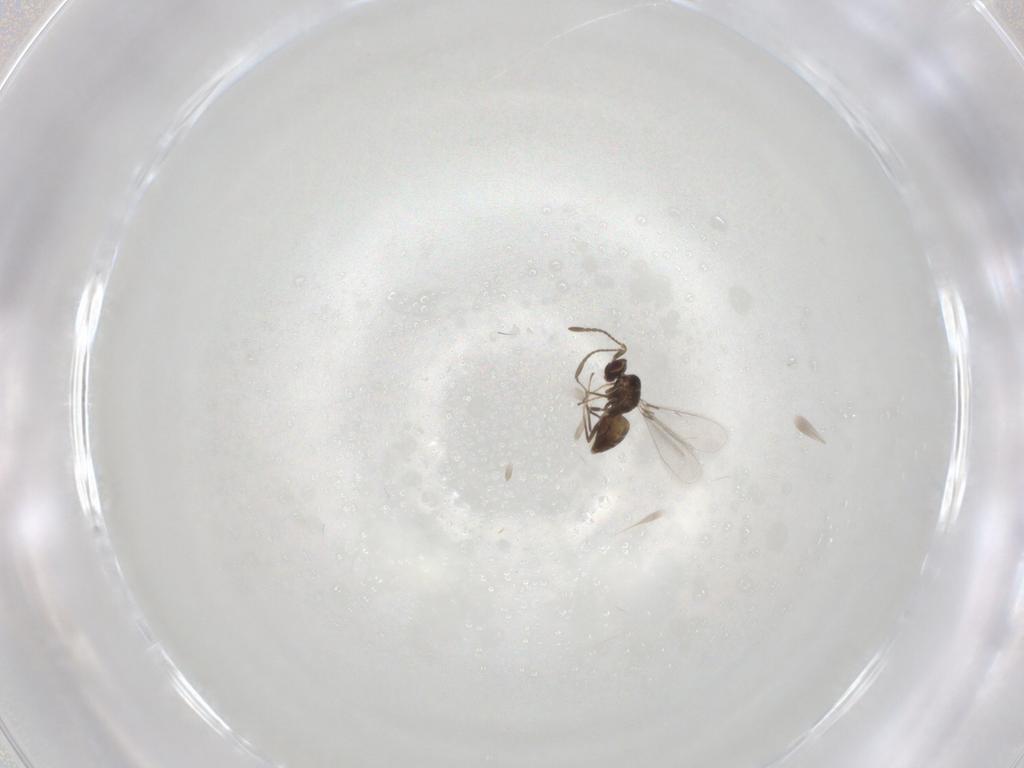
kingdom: Animalia
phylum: Arthropoda
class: Insecta
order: Hymenoptera
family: Mymaridae
